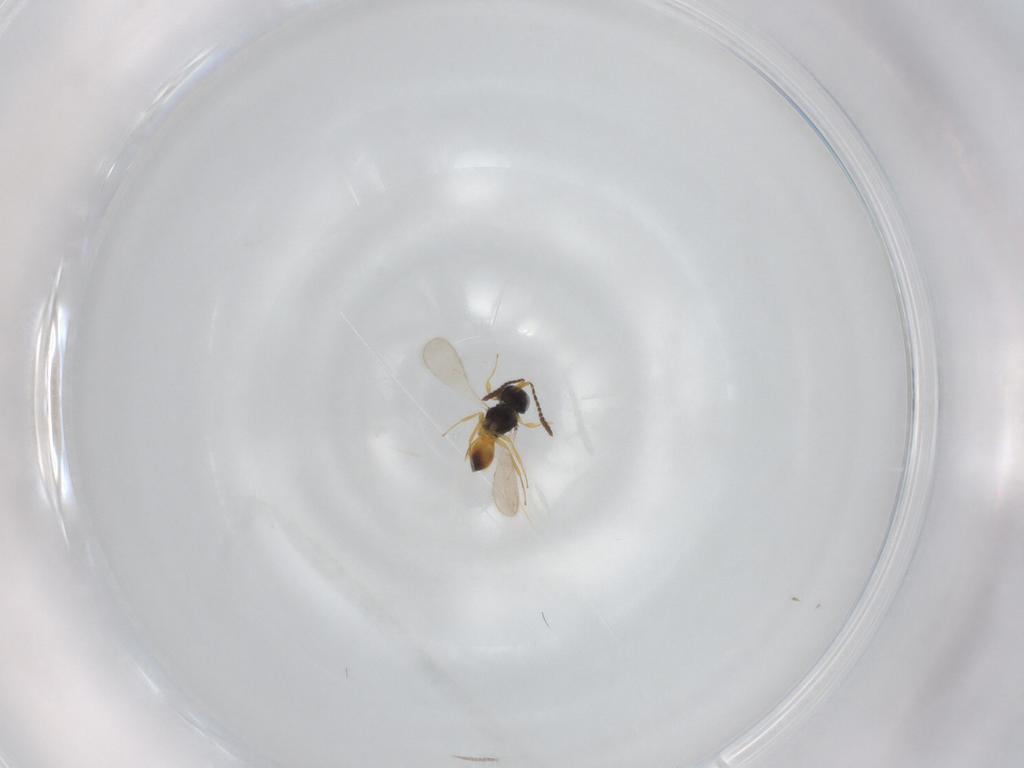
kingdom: Animalia
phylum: Arthropoda
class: Insecta
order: Hymenoptera
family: Scelionidae
